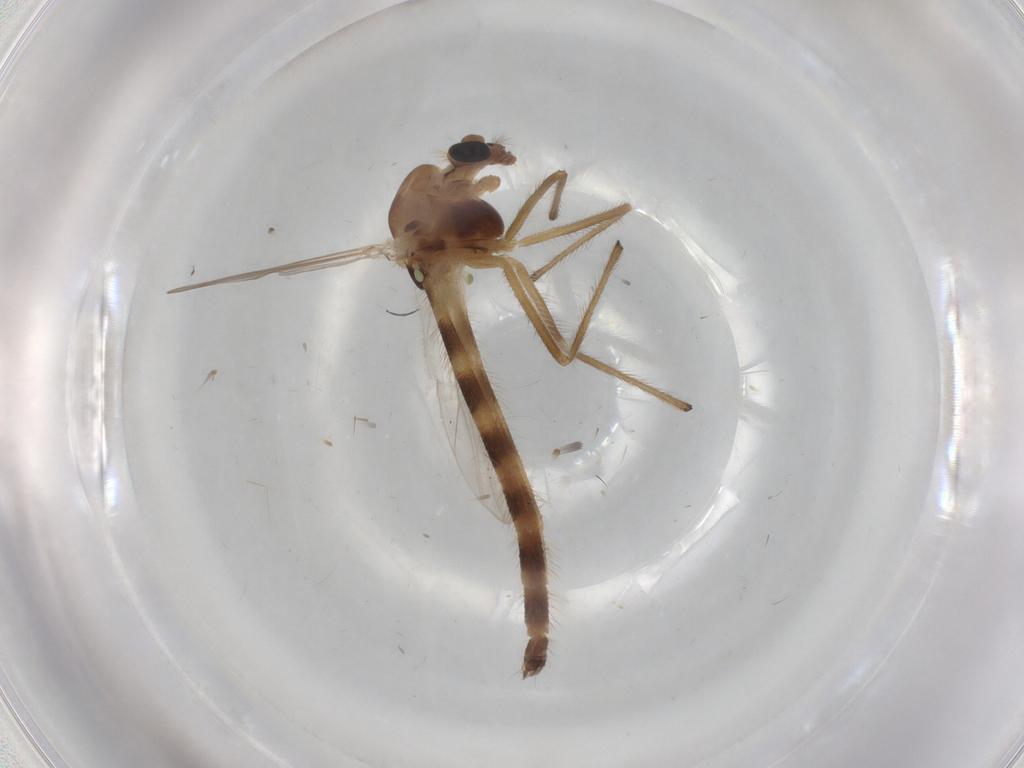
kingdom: Animalia
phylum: Arthropoda
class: Insecta
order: Diptera
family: Chironomidae
